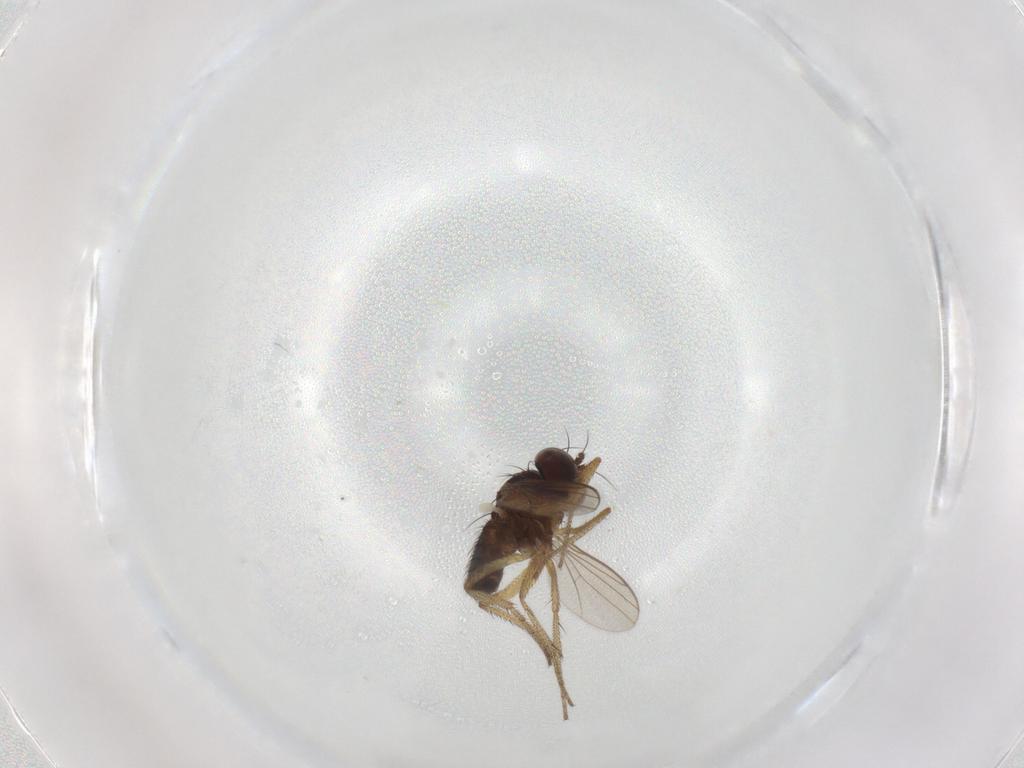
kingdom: Animalia
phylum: Arthropoda
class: Insecta
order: Diptera
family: Dolichopodidae
